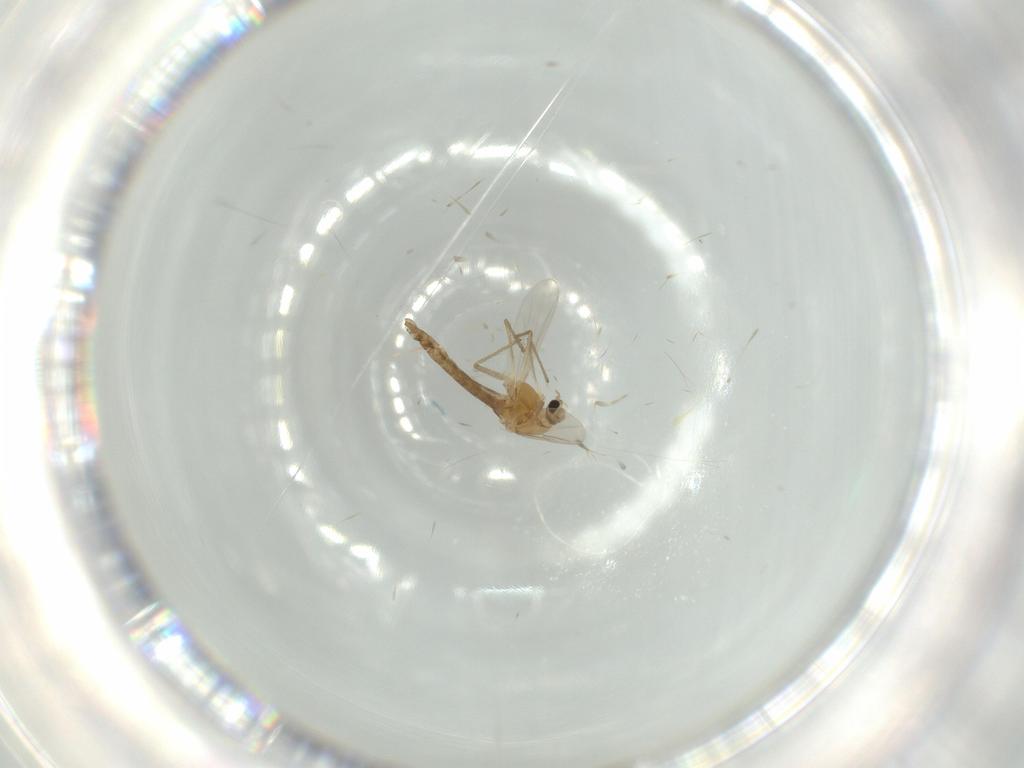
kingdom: Animalia
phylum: Arthropoda
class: Insecta
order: Diptera
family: Chironomidae
